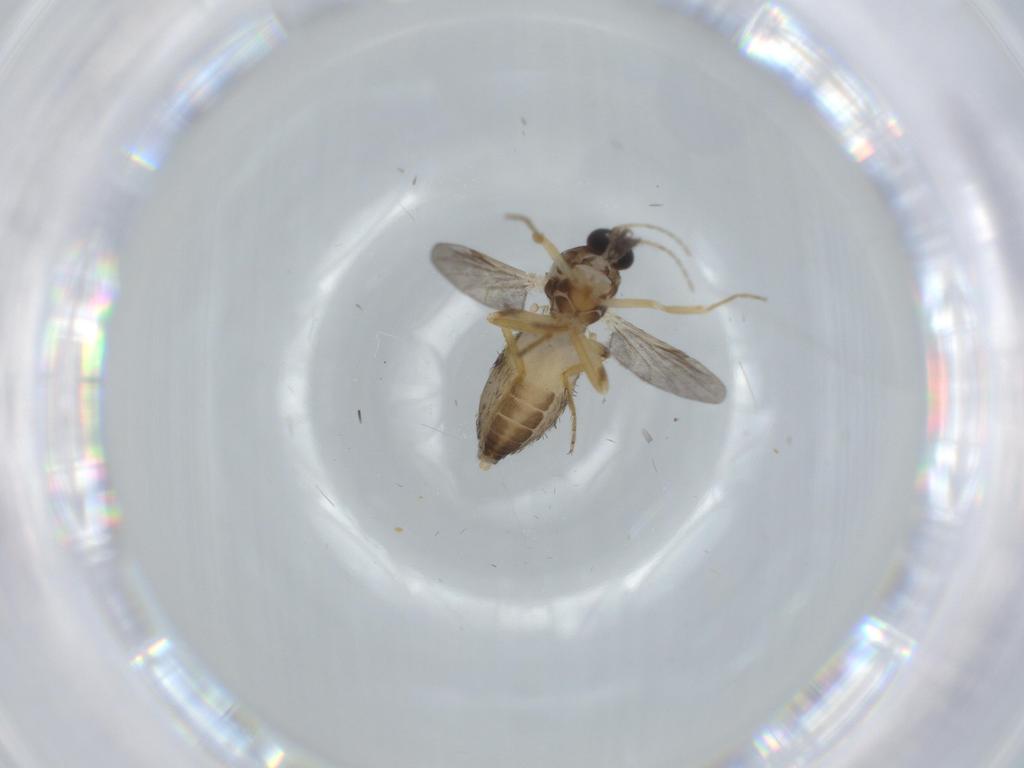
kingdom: Animalia
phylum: Arthropoda
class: Insecta
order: Diptera
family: Ceratopogonidae
